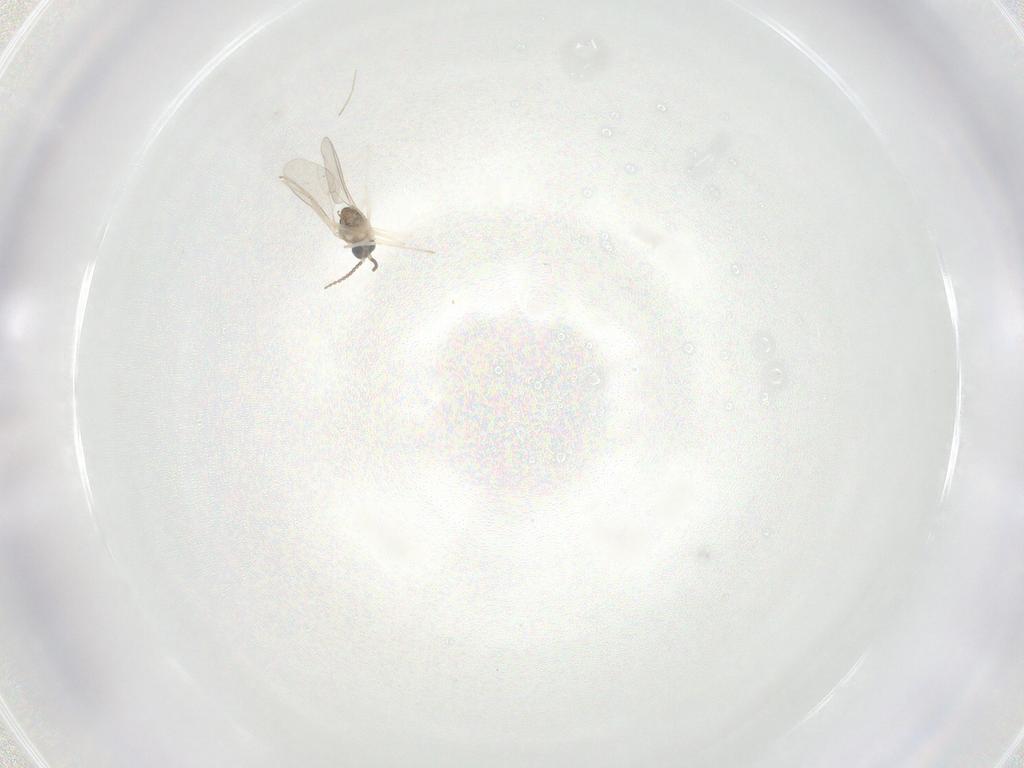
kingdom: Animalia
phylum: Arthropoda
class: Insecta
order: Diptera
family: Cecidomyiidae
